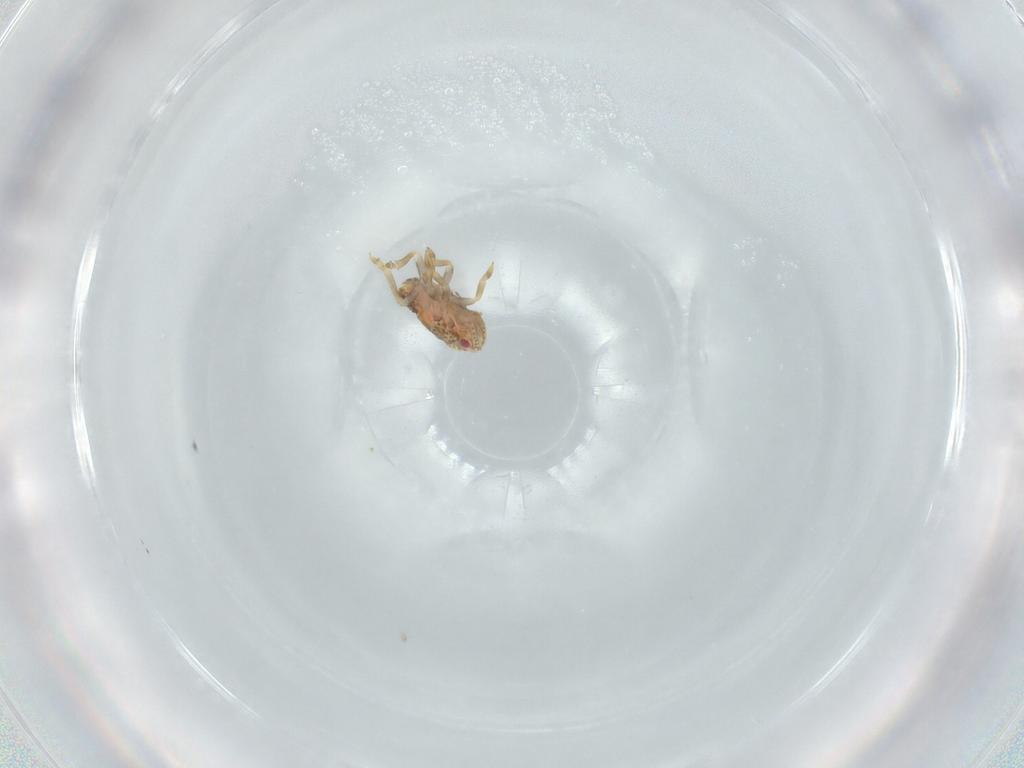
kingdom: Animalia
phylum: Arthropoda
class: Insecta
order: Hemiptera
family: Flatidae
